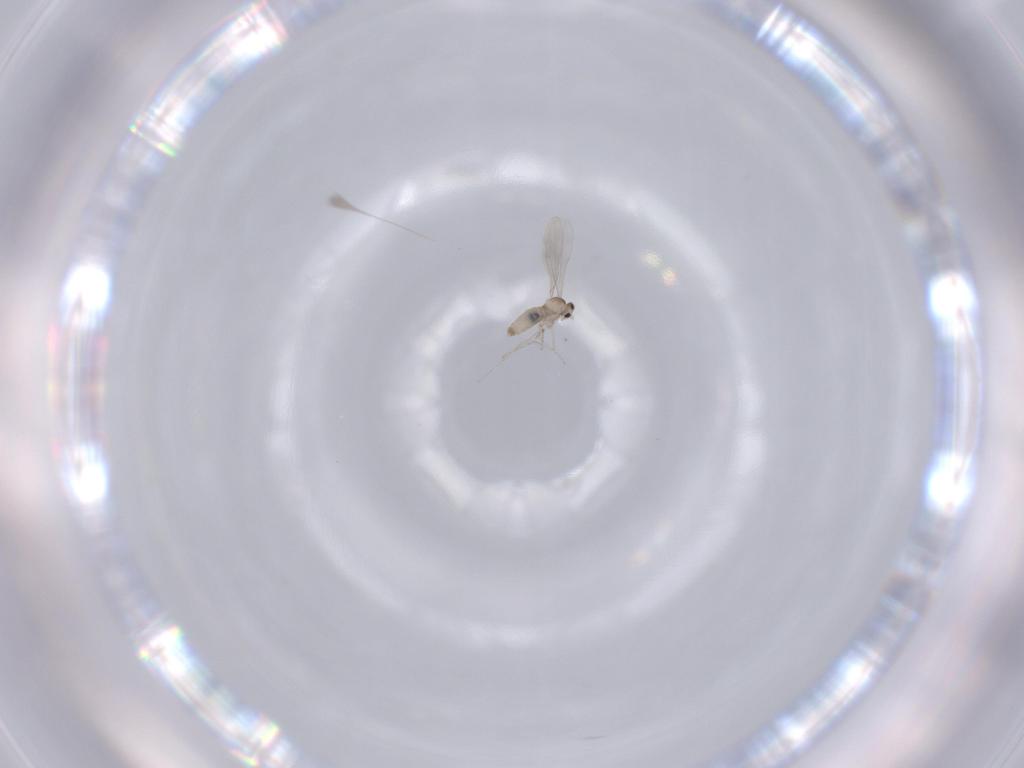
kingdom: Animalia
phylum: Arthropoda
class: Insecta
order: Diptera
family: Cecidomyiidae
